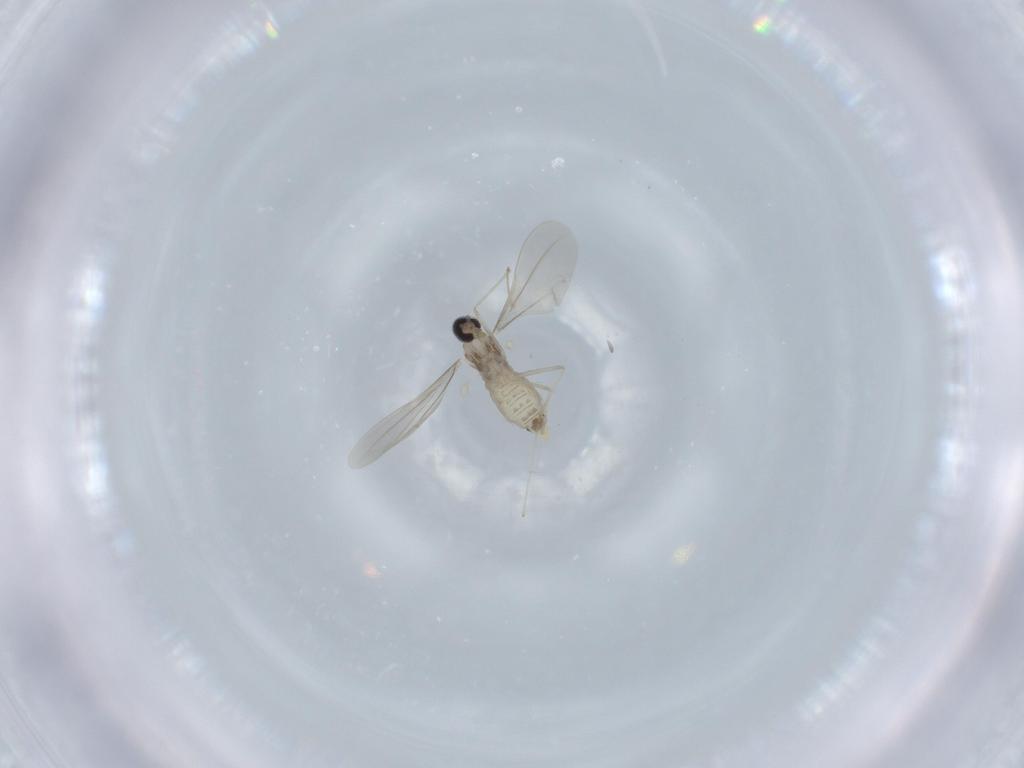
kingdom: Animalia
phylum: Arthropoda
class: Insecta
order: Diptera
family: Cecidomyiidae
